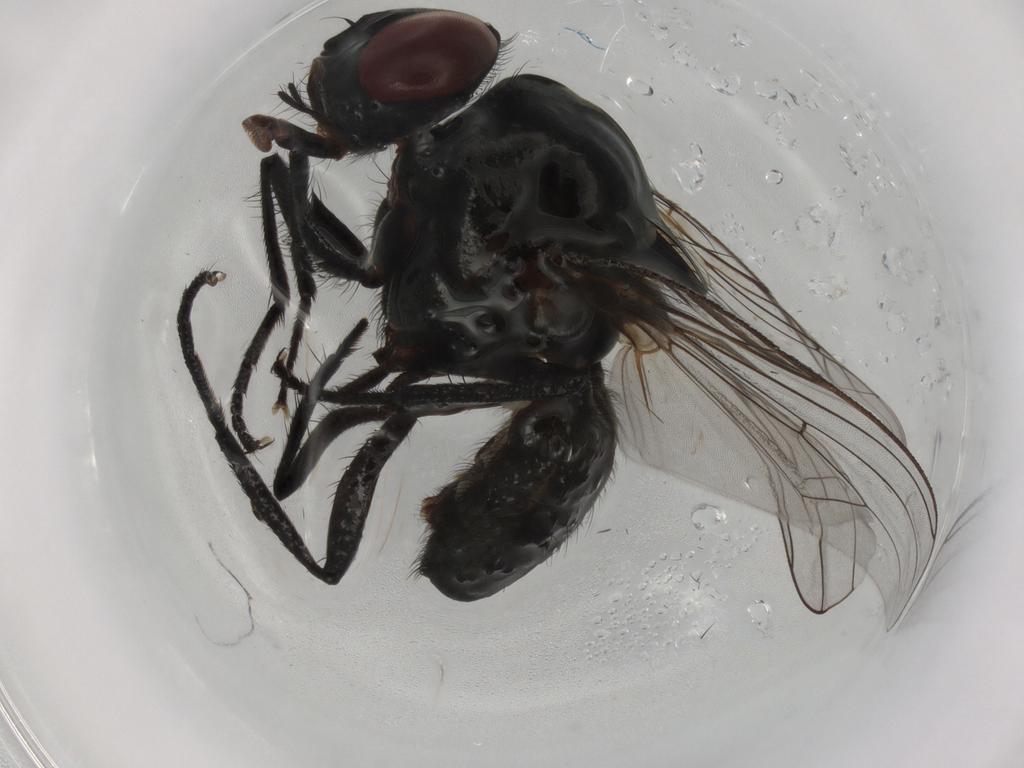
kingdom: Animalia
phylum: Arthropoda
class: Insecta
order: Diptera
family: Anthomyiidae
